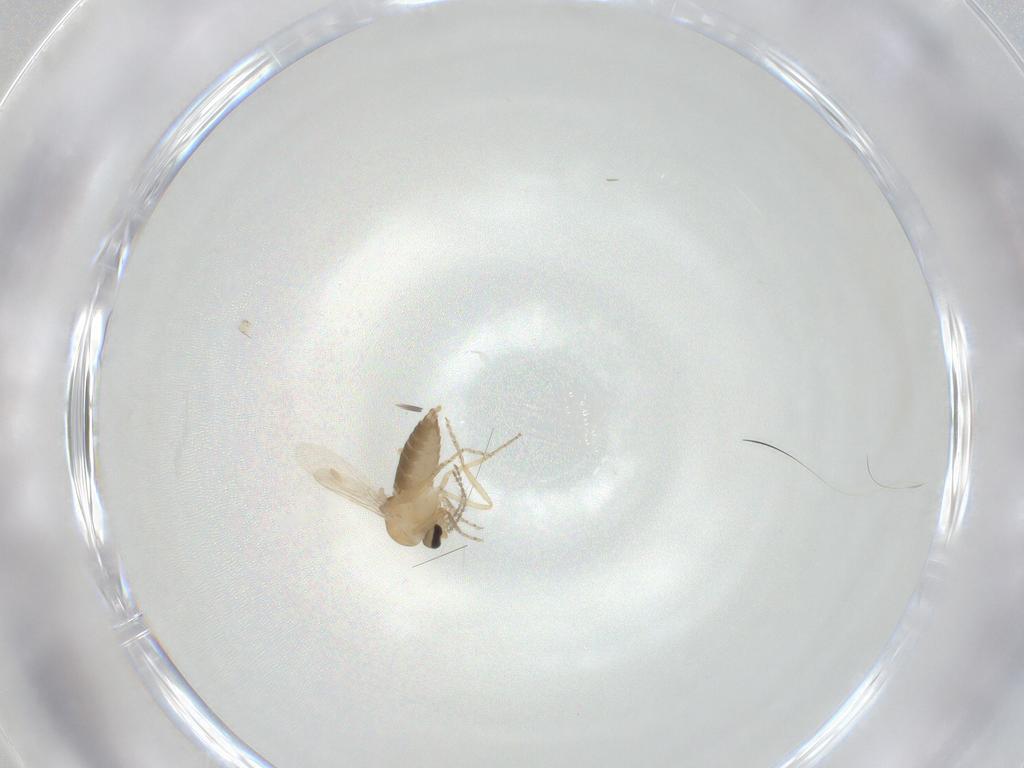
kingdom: Animalia
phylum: Arthropoda
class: Insecta
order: Diptera
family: Ceratopogonidae
